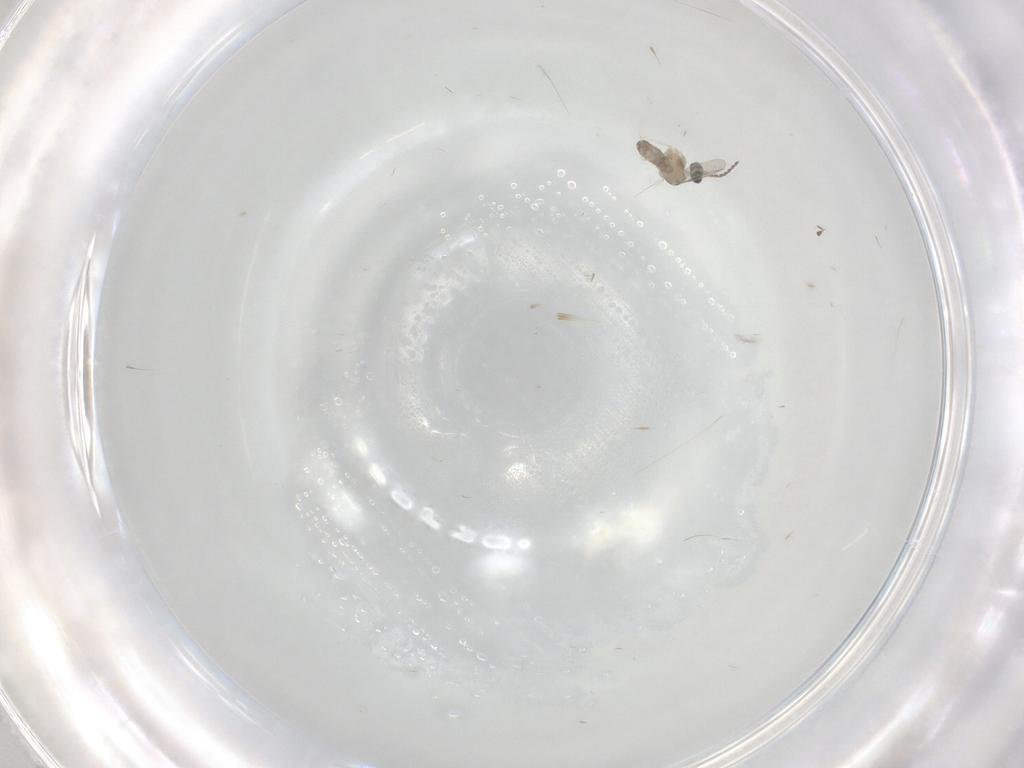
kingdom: Animalia
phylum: Arthropoda
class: Insecta
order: Diptera
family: Cecidomyiidae
